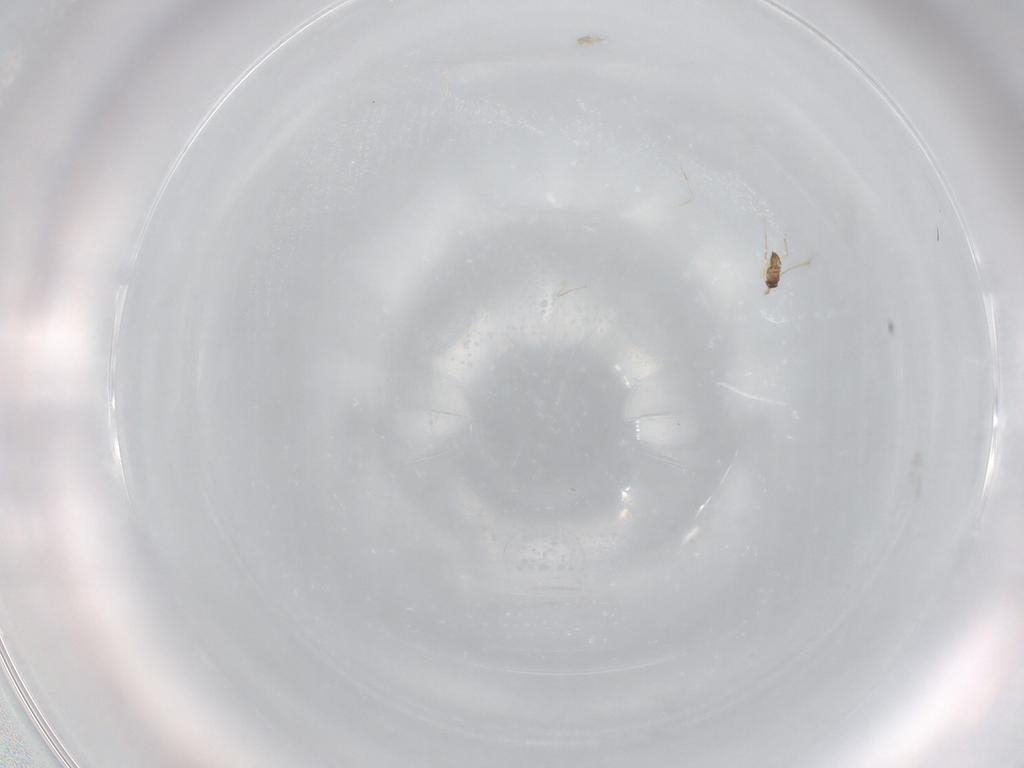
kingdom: Animalia
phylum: Arthropoda
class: Insecta
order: Hymenoptera
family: Mymaridae
